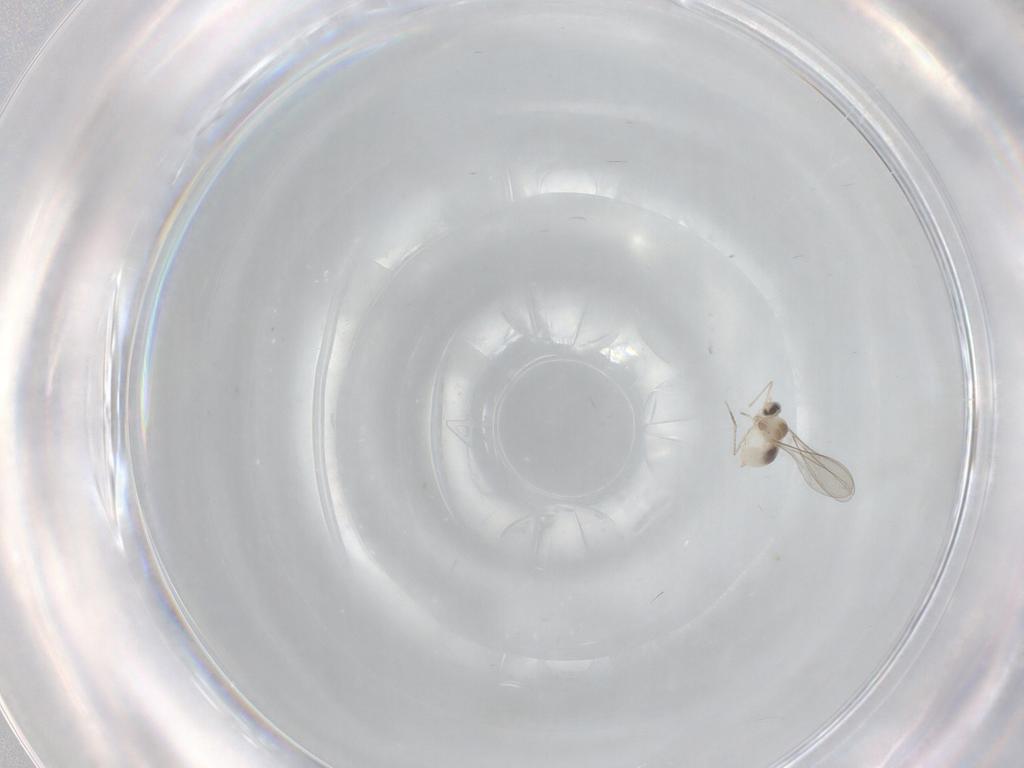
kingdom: Animalia
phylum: Arthropoda
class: Insecta
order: Diptera
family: Cecidomyiidae
